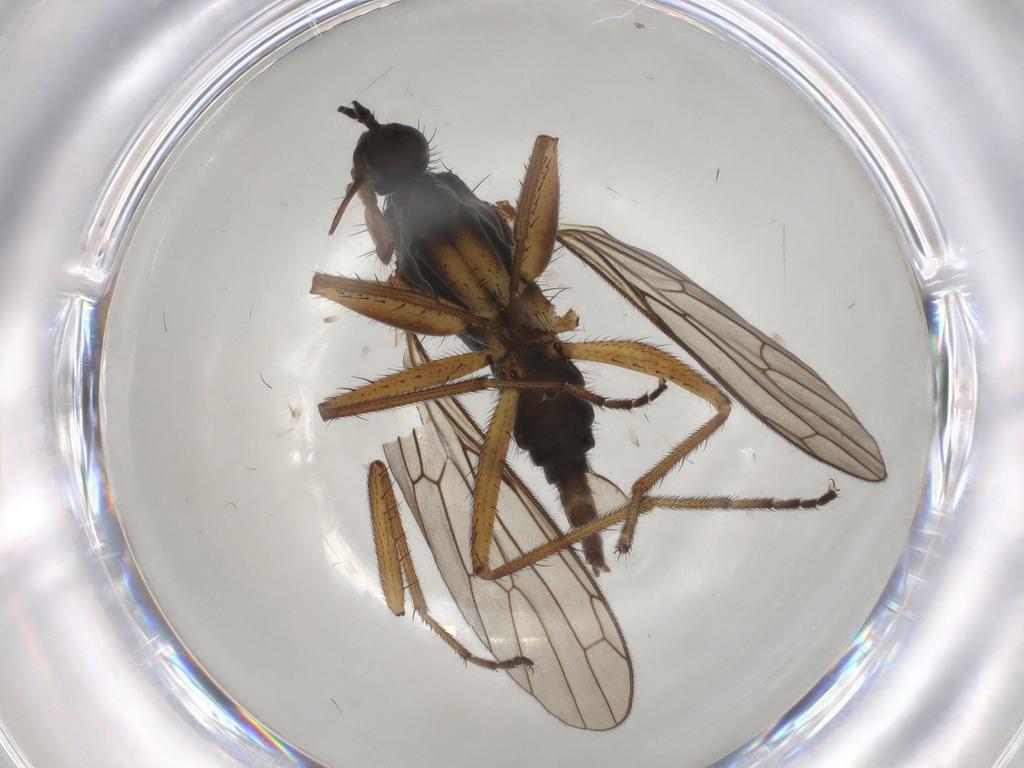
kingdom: Animalia
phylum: Arthropoda
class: Insecta
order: Diptera
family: Empididae
